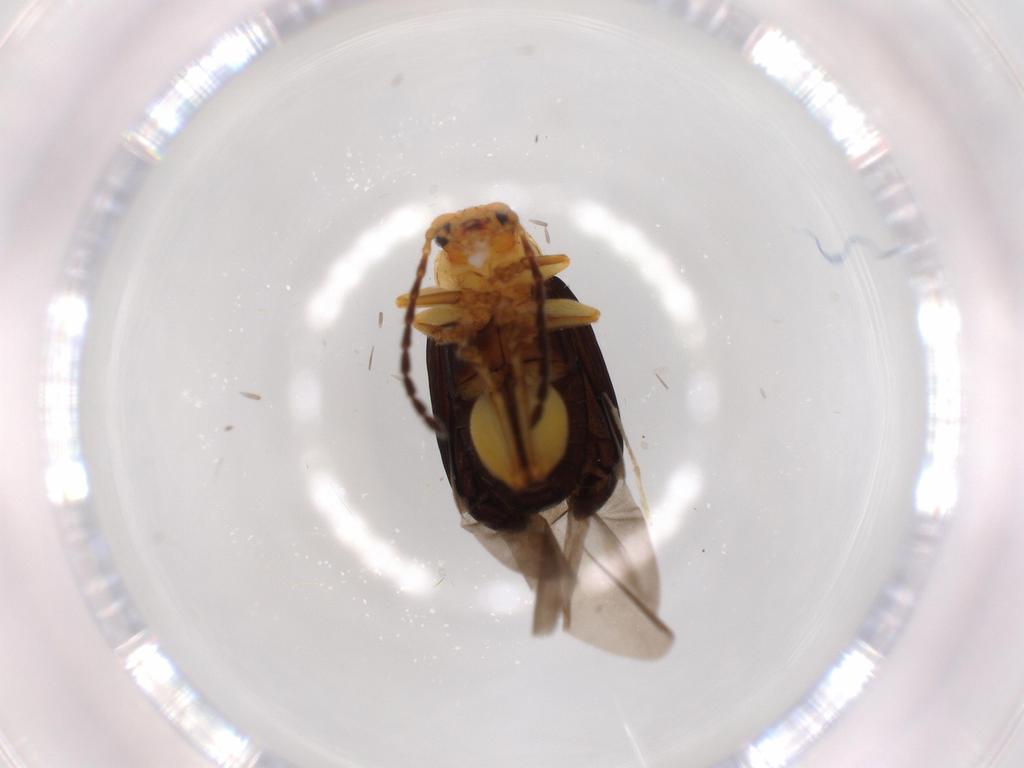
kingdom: Animalia
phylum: Arthropoda
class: Insecta
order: Coleoptera
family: Chrysomelidae
